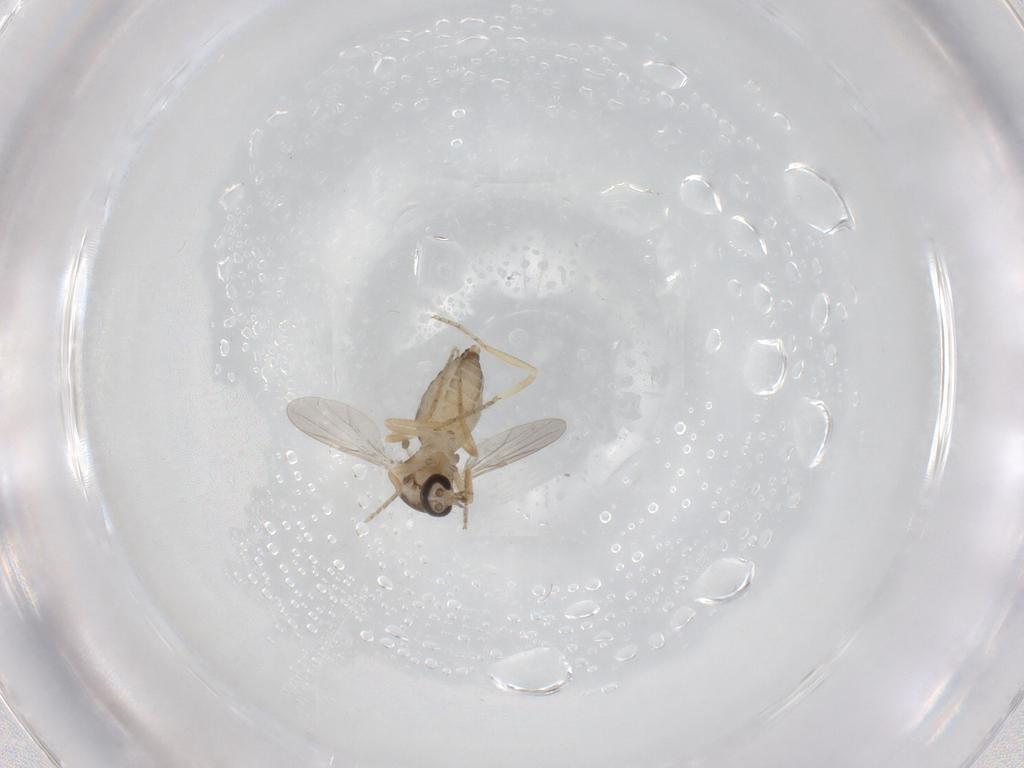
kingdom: Animalia
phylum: Arthropoda
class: Insecta
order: Diptera
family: Ceratopogonidae
